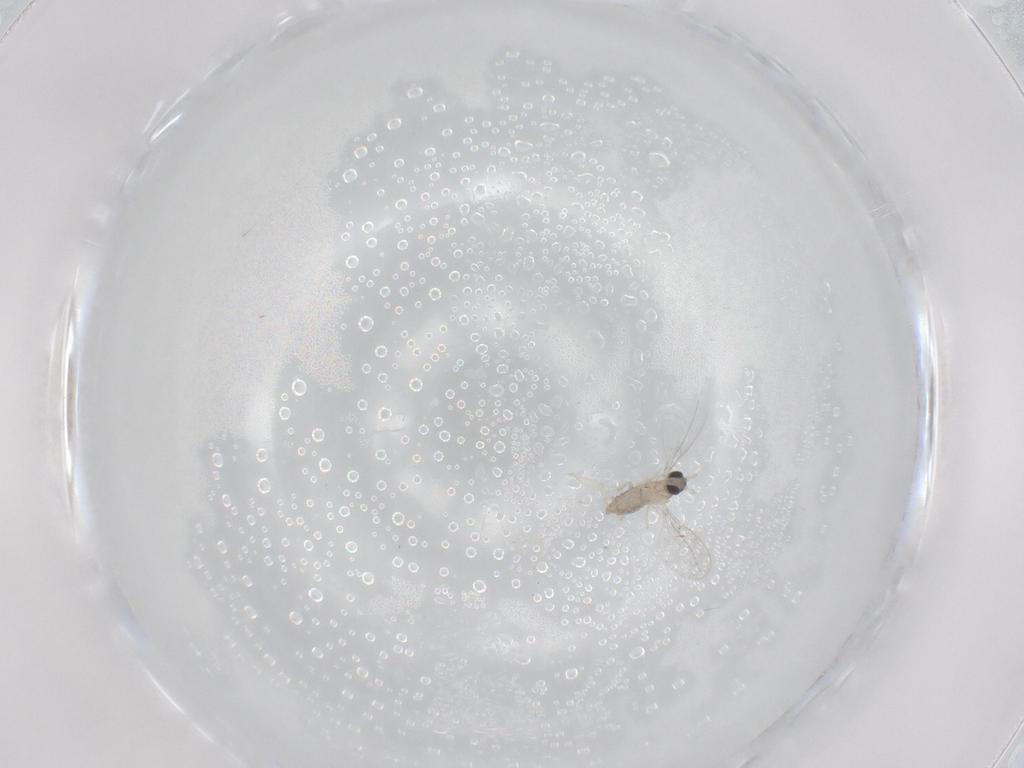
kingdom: Animalia
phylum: Arthropoda
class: Insecta
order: Diptera
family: Cecidomyiidae
